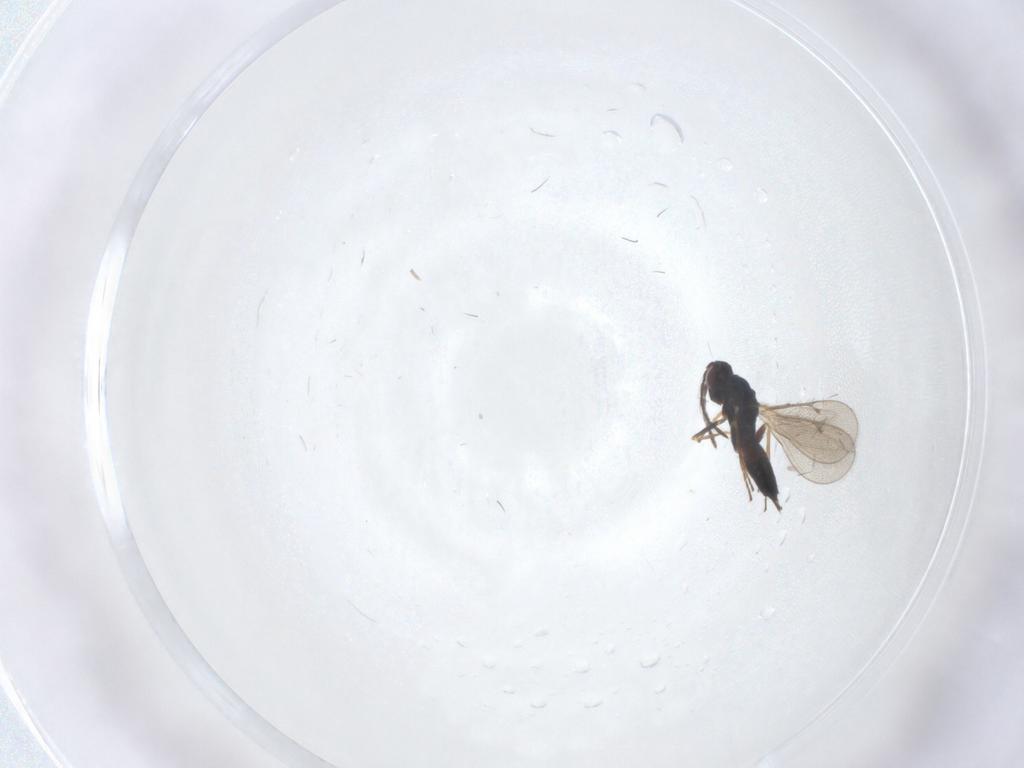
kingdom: Animalia
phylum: Arthropoda
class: Insecta
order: Hymenoptera
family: Eulophidae
